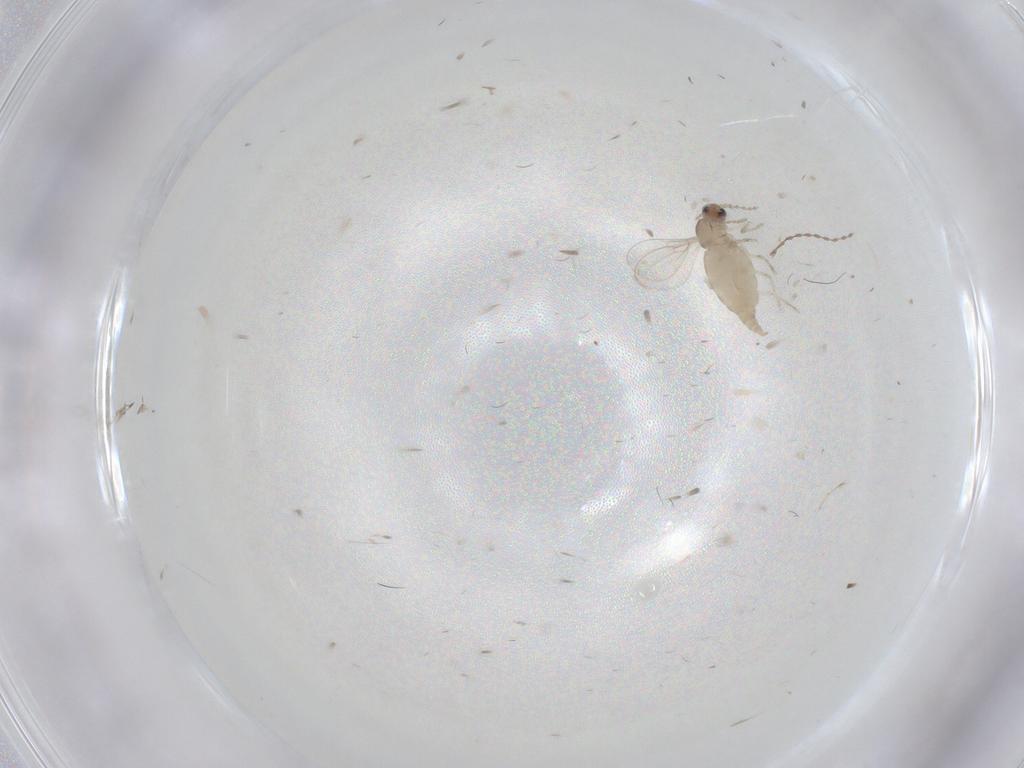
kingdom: Animalia
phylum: Arthropoda
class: Insecta
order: Diptera
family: Cecidomyiidae
